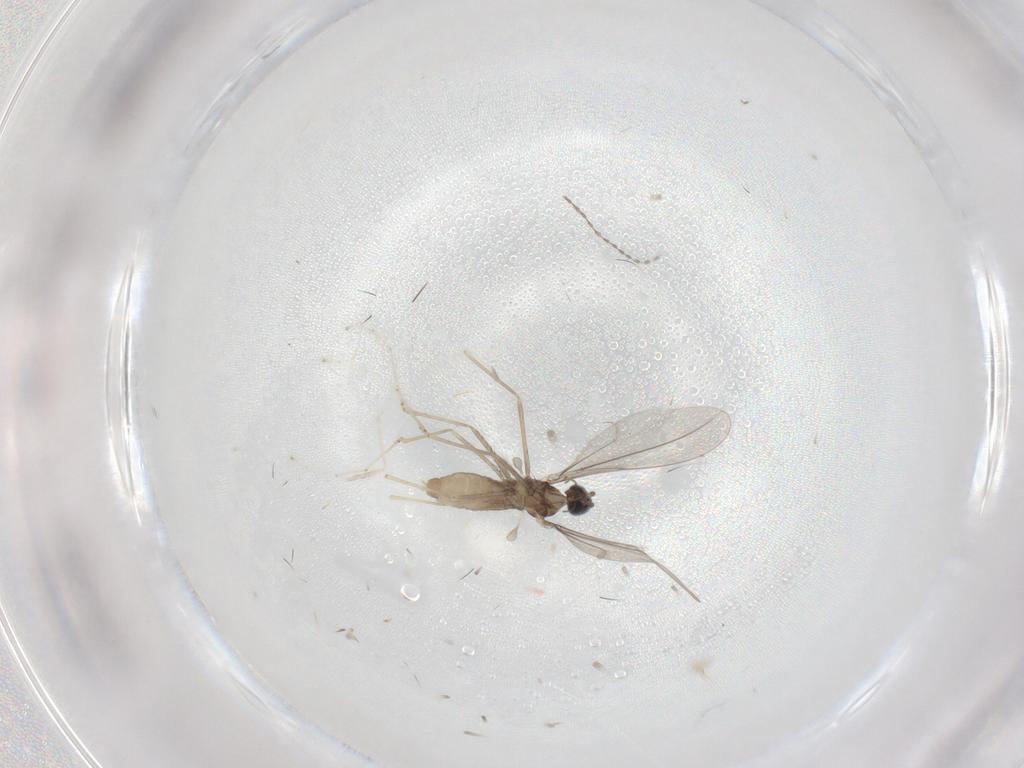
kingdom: Animalia
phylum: Arthropoda
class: Insecta
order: Diptera
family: Cecidomyiidae
